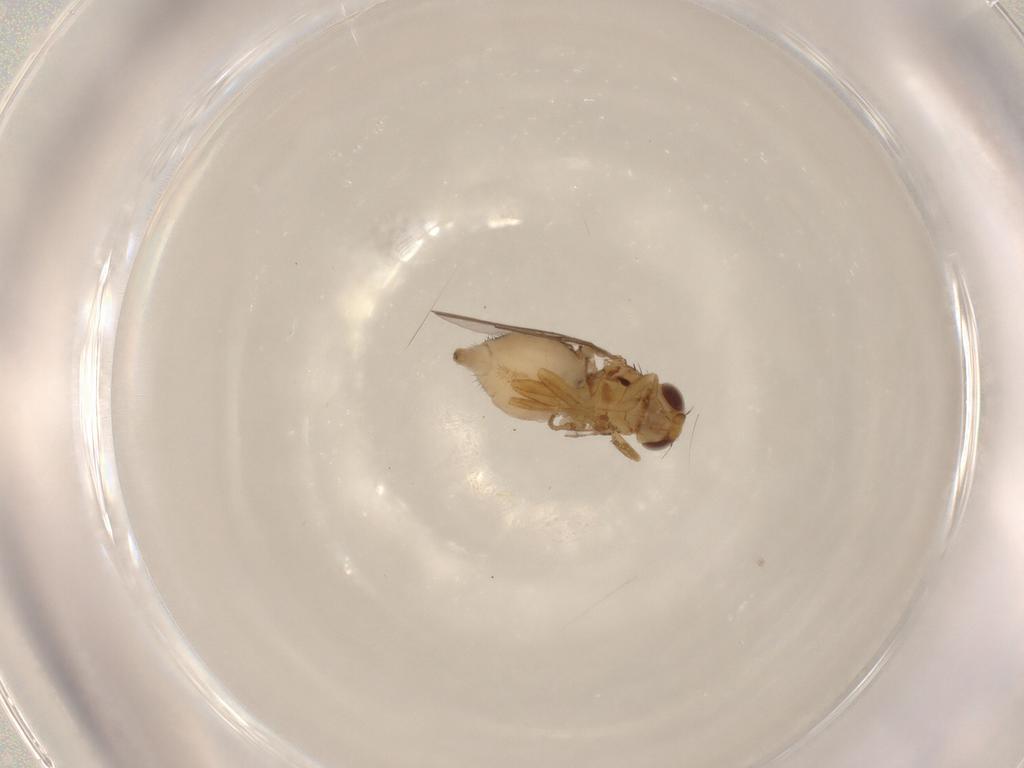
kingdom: Animalia
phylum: Arthropoda
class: Insecta
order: Diptera
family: Chloropidae
